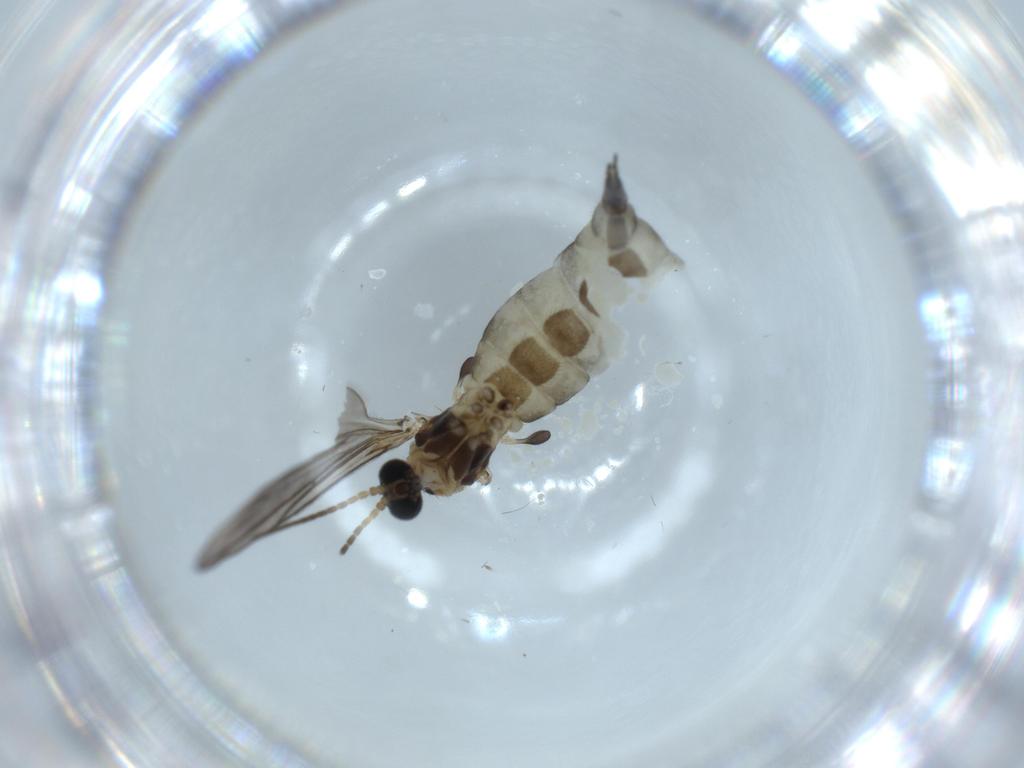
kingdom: Animalia
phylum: Arthropoda
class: Insecta
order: Diptera
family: Sciaridae
